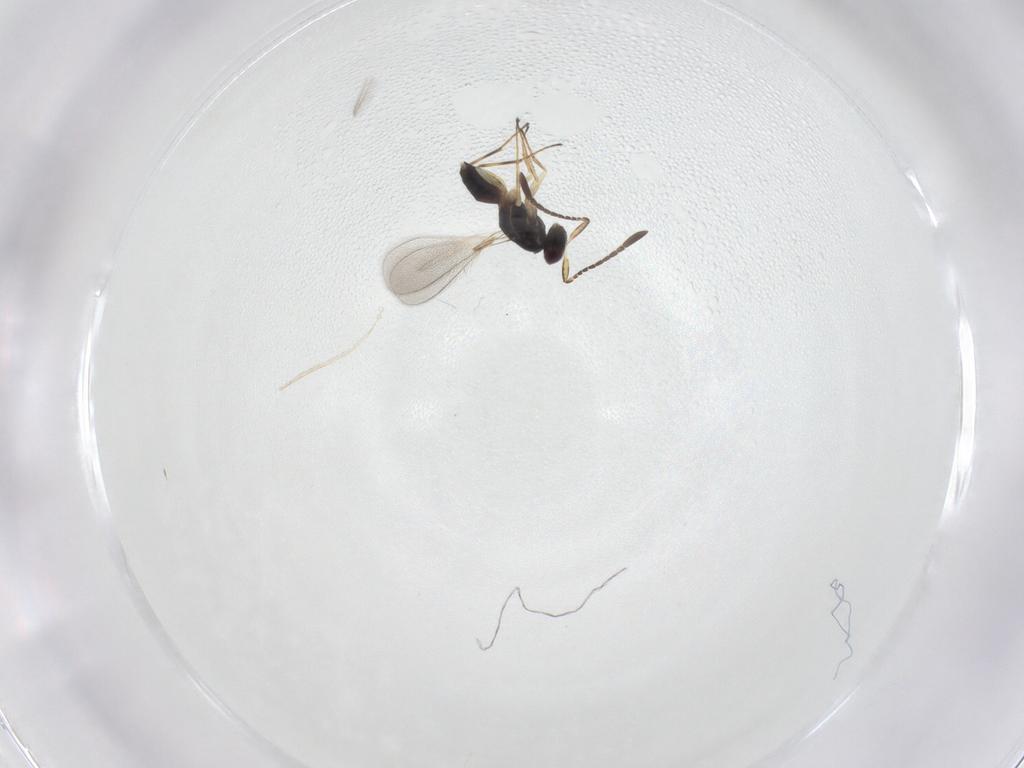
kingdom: Animalia
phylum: Arthropoda
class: Insecta
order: Hymenoptera
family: Mymaridae
